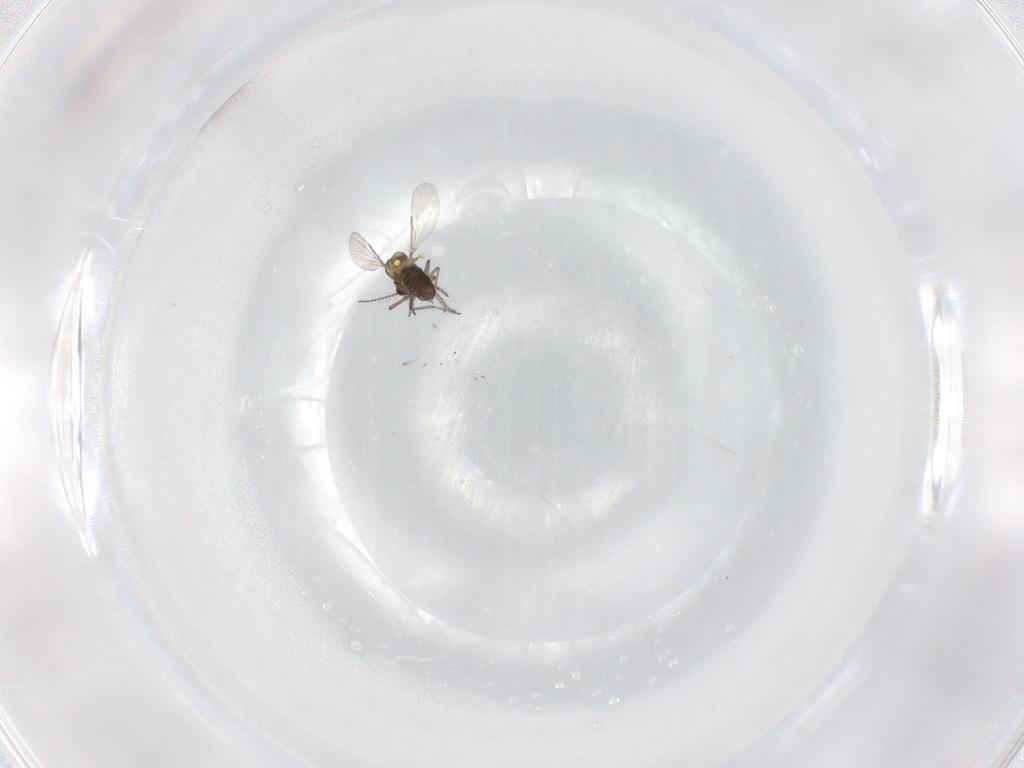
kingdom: Animalia
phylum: Arthropoda
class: Insecta
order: Diptera
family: Ceratopogonidae
